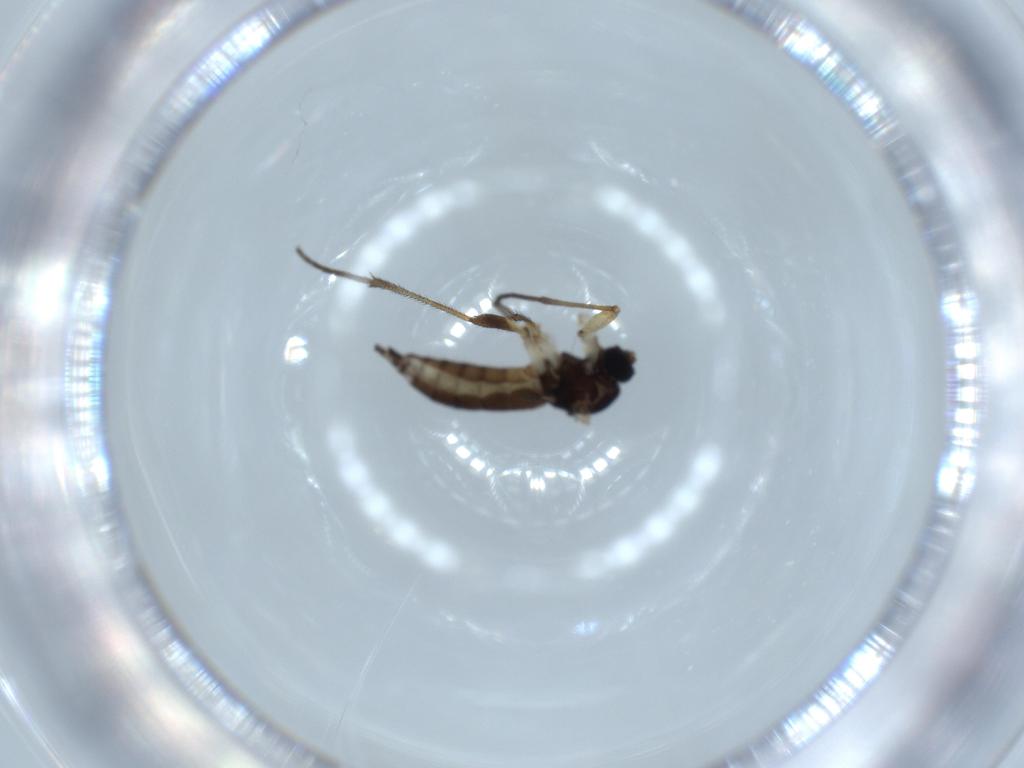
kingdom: Animalia
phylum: Arthropoda
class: Insecta
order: Diptera
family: Sciaridae
